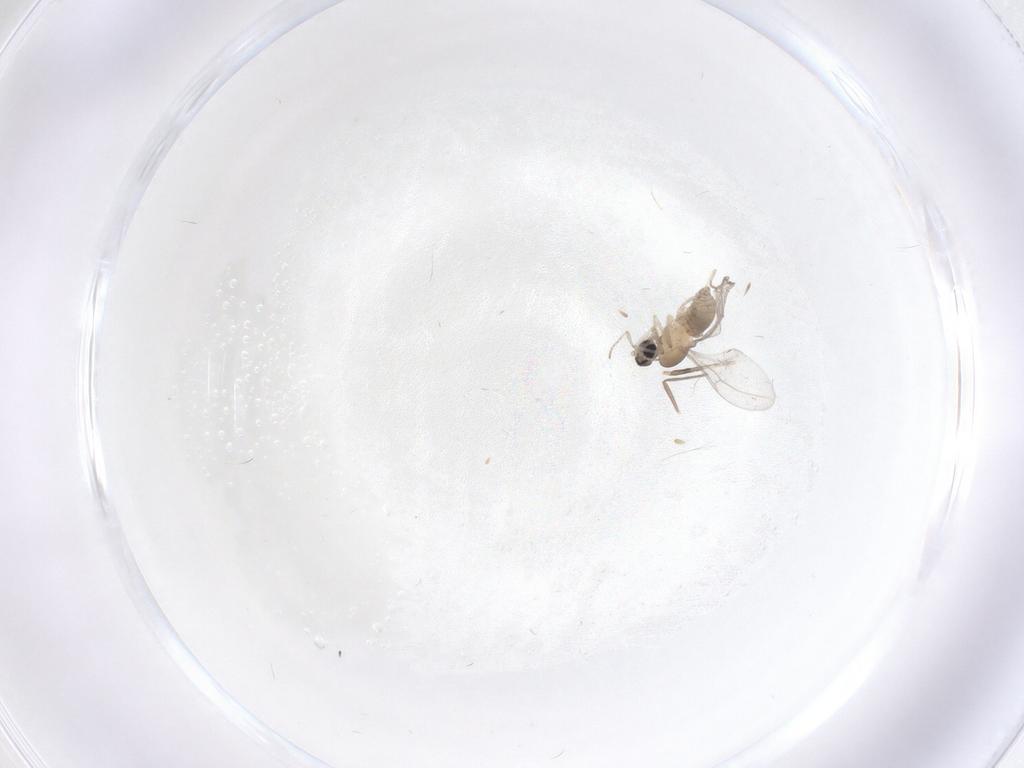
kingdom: Animalia
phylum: Arthropoda
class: Insecta
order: Diptera
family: Cecidomyiidae
